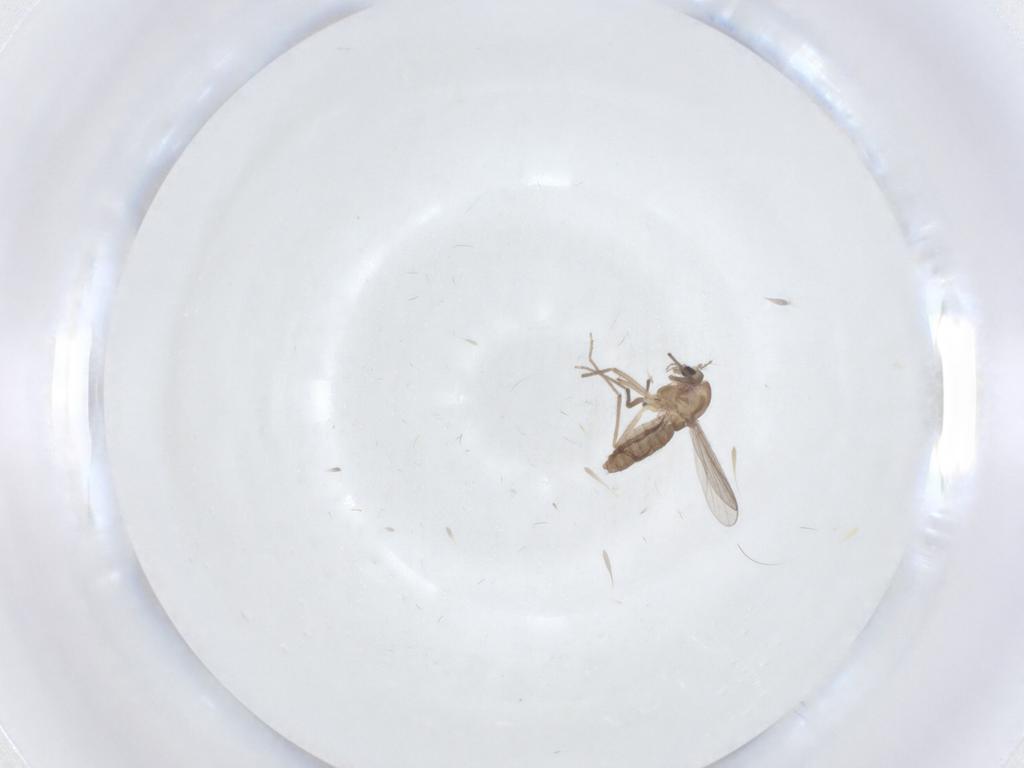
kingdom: Animalia
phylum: Arthropoda
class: Insecta
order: Diptera
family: Chironomidae
